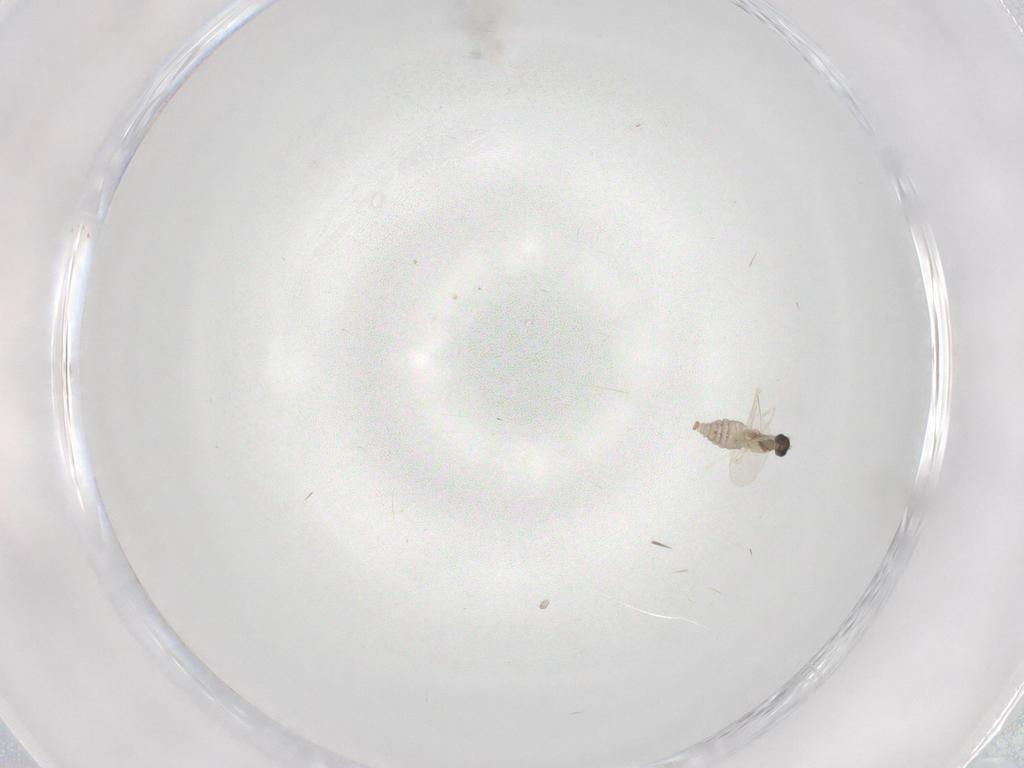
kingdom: Animalia
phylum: Arthropoda
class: Insecta
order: Diptera
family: Cecidomyiidae
